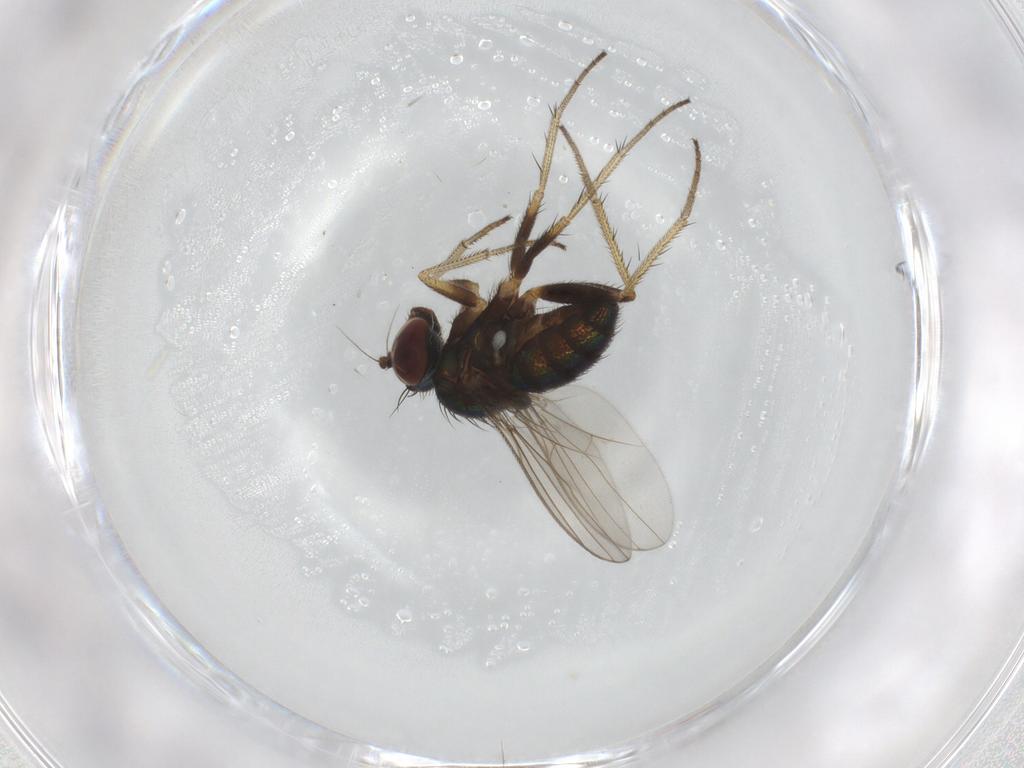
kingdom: Animalia
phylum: Arthropoda
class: Insecta
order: Diptera
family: Dolichopodidae
